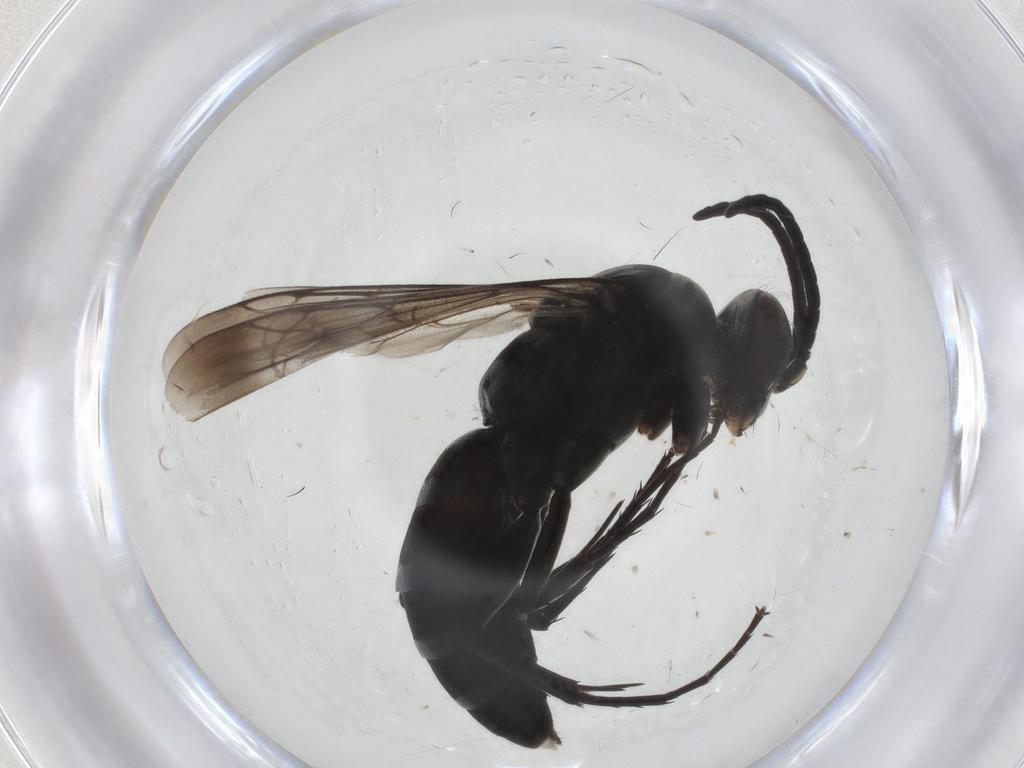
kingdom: Animalia
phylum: Arthropoda
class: Insecta
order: Hymenoptera
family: Pompilidae
